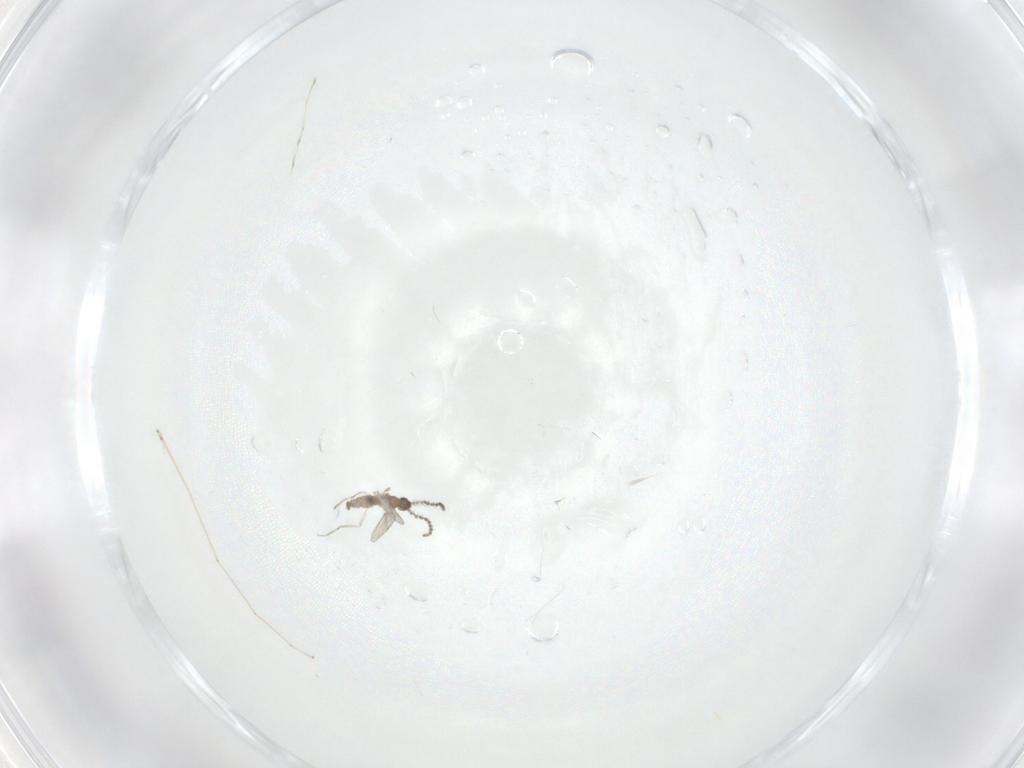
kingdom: Animalia
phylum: Arthropoda
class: Insecta
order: Diptera
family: Cecidomyiidae
